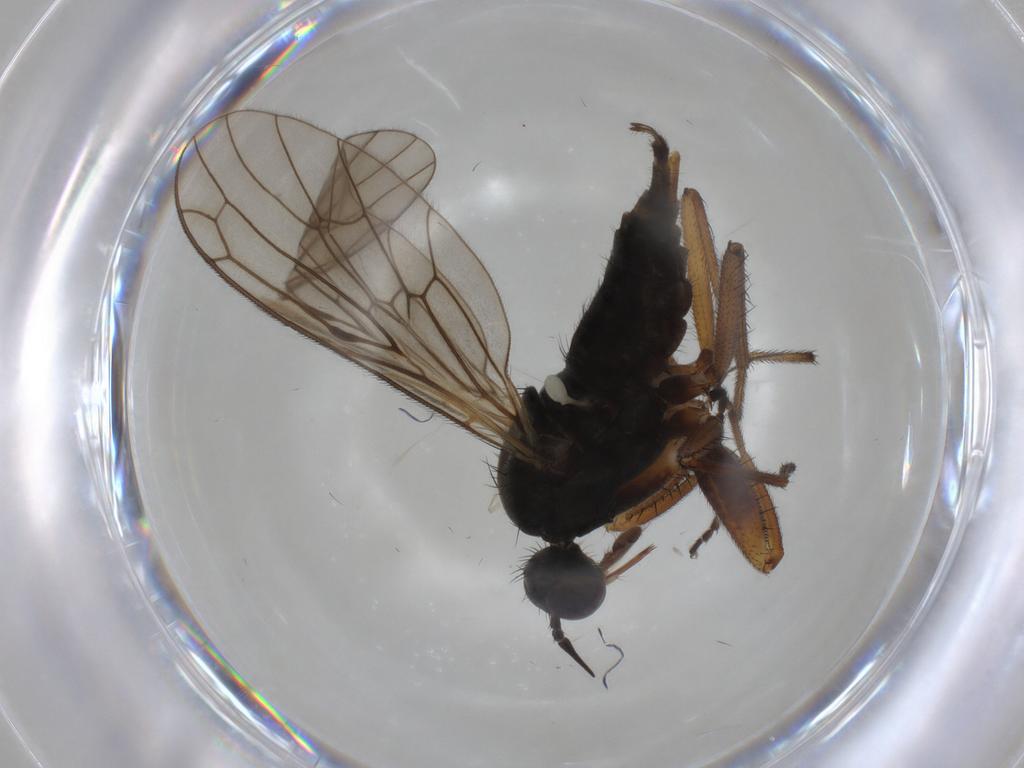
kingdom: Animalia
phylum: Arthropoda
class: Insecta
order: Diptera
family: Empididae
